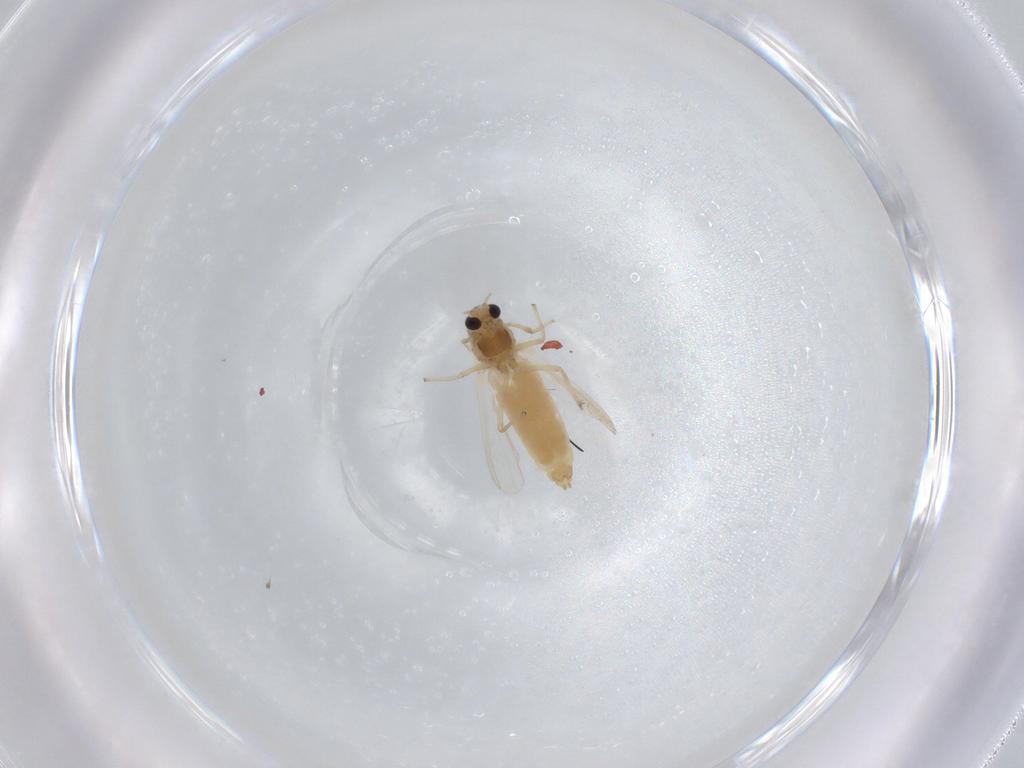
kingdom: Animalia
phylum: Arthropoda
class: Insecta
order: Diptera
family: Chironomidae
